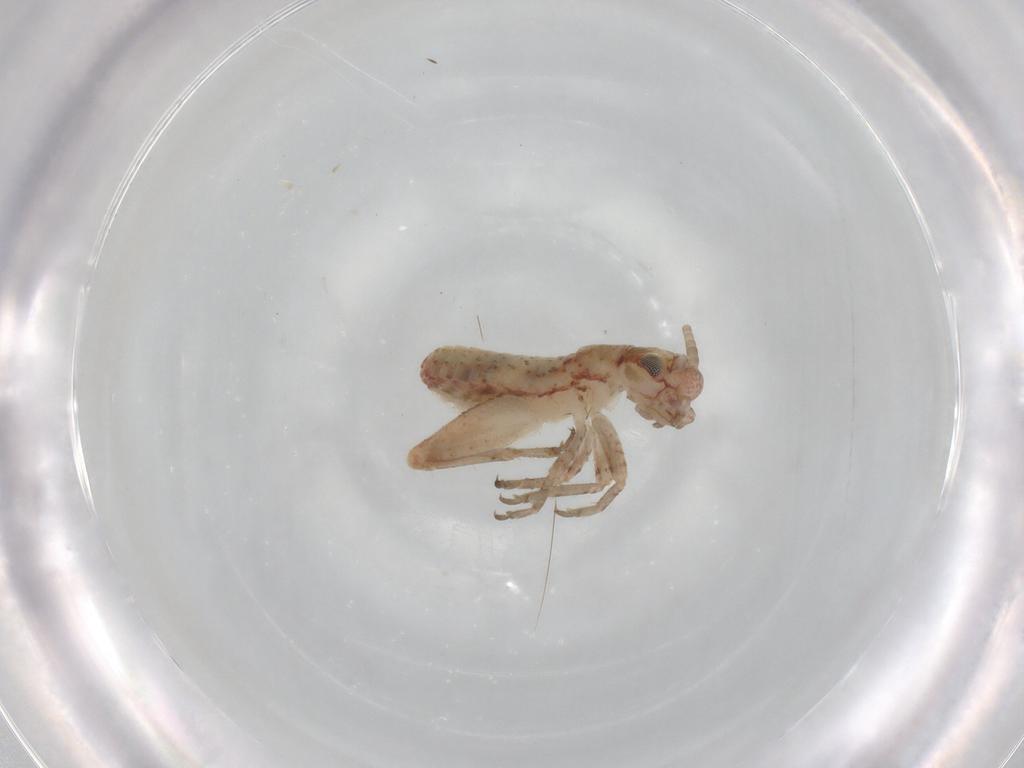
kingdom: Animalia
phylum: Arthropoda
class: Insecta
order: Orthoptera
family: Mogoplistidae
